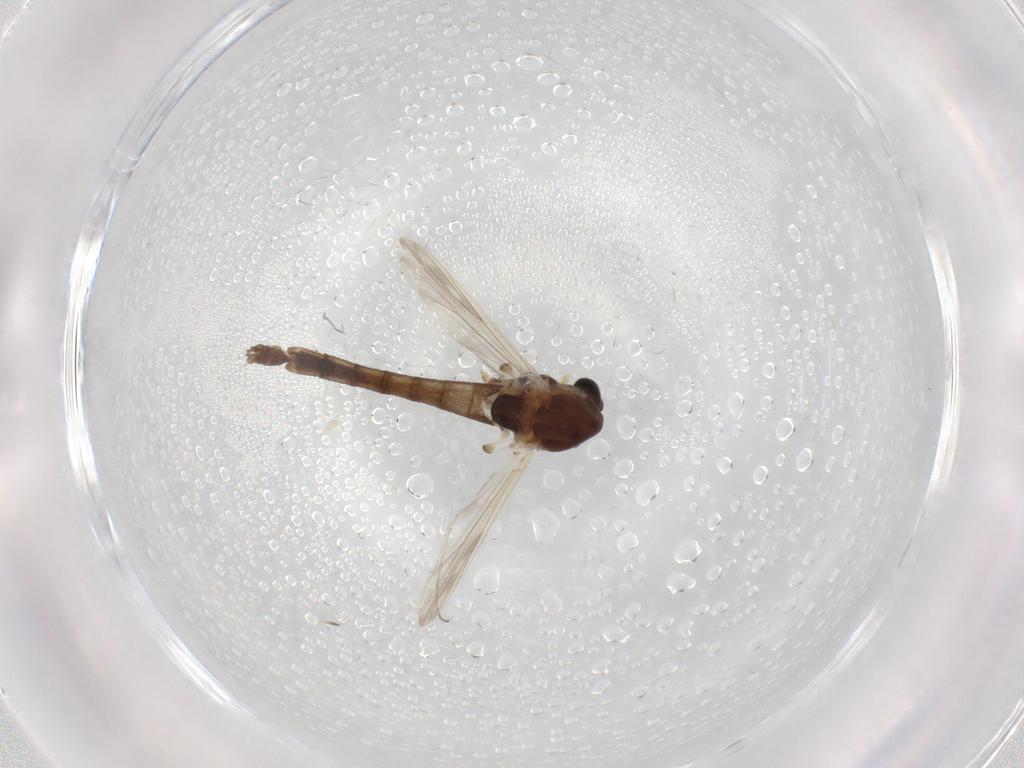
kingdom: Animalia
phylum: Arthropoda
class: Insecta
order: Diptera
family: Chironomidae
